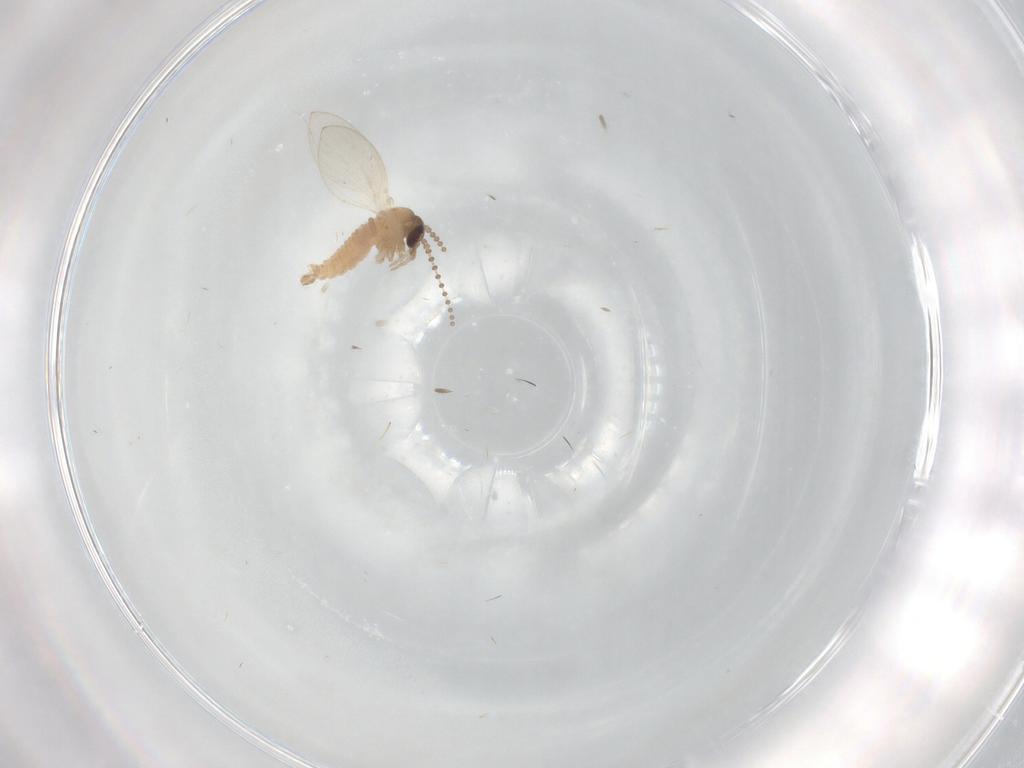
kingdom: Animalia
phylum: Arthropoda
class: Insecta
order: Diptera
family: Psychodidae
